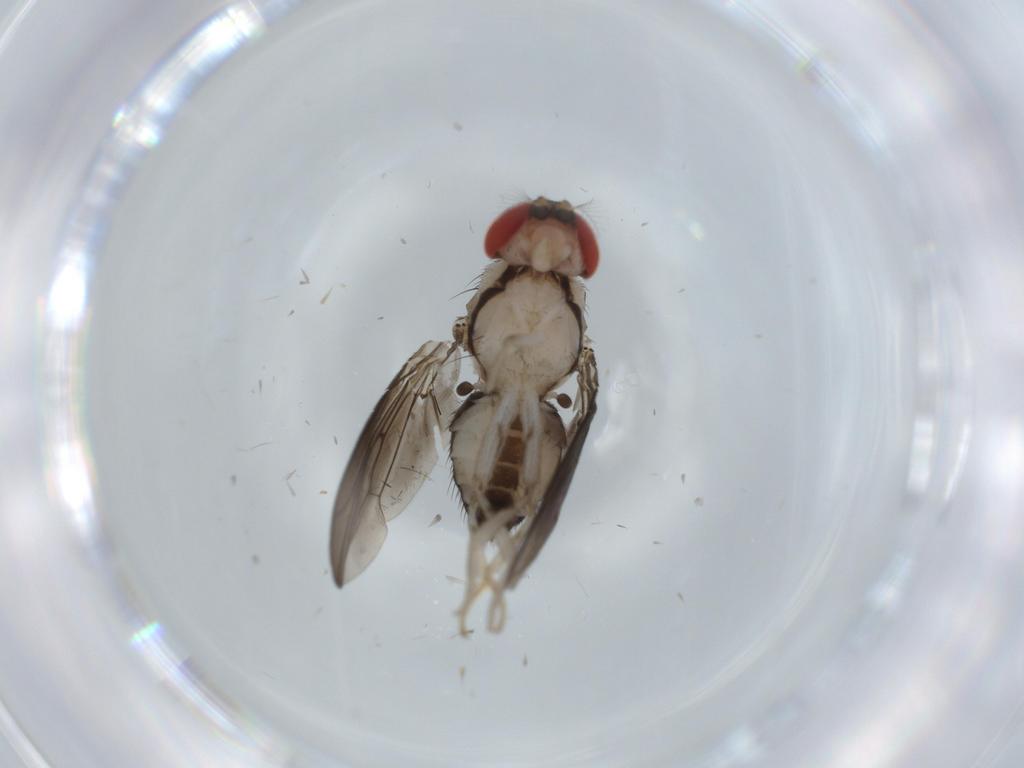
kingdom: Animalia
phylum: Arthropoda
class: Insecta
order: Diptera
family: Drosophilidae
